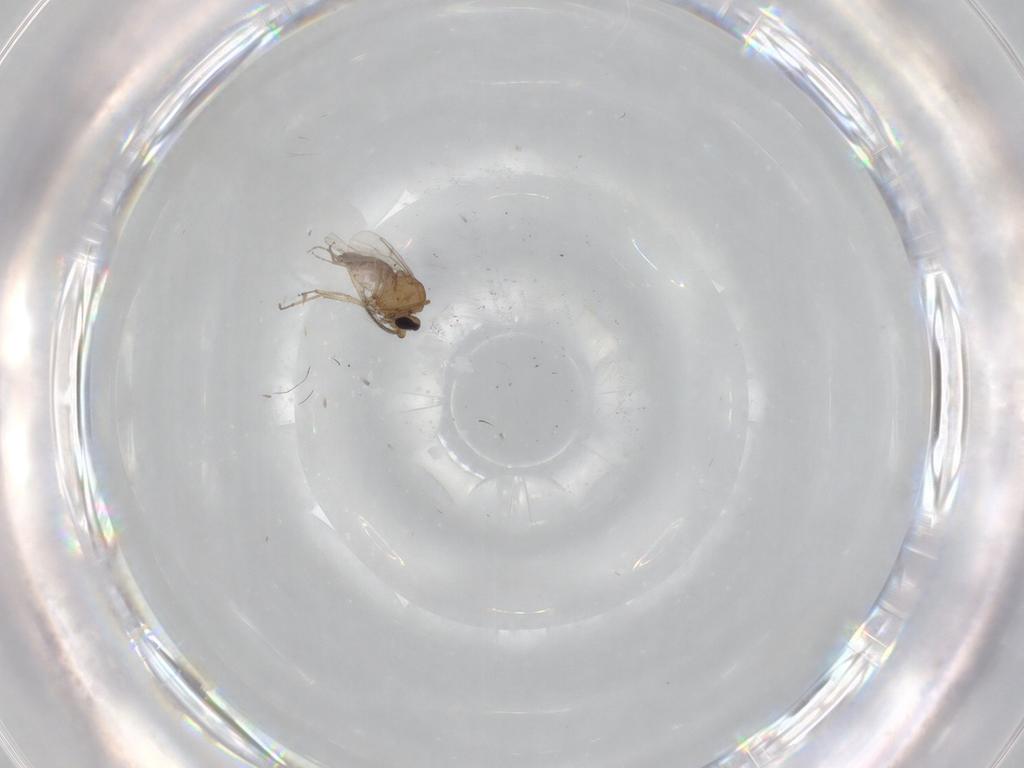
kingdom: Animalia
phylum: Arthropoda
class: Insecta
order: Diptera
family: Ceratopogonidae
